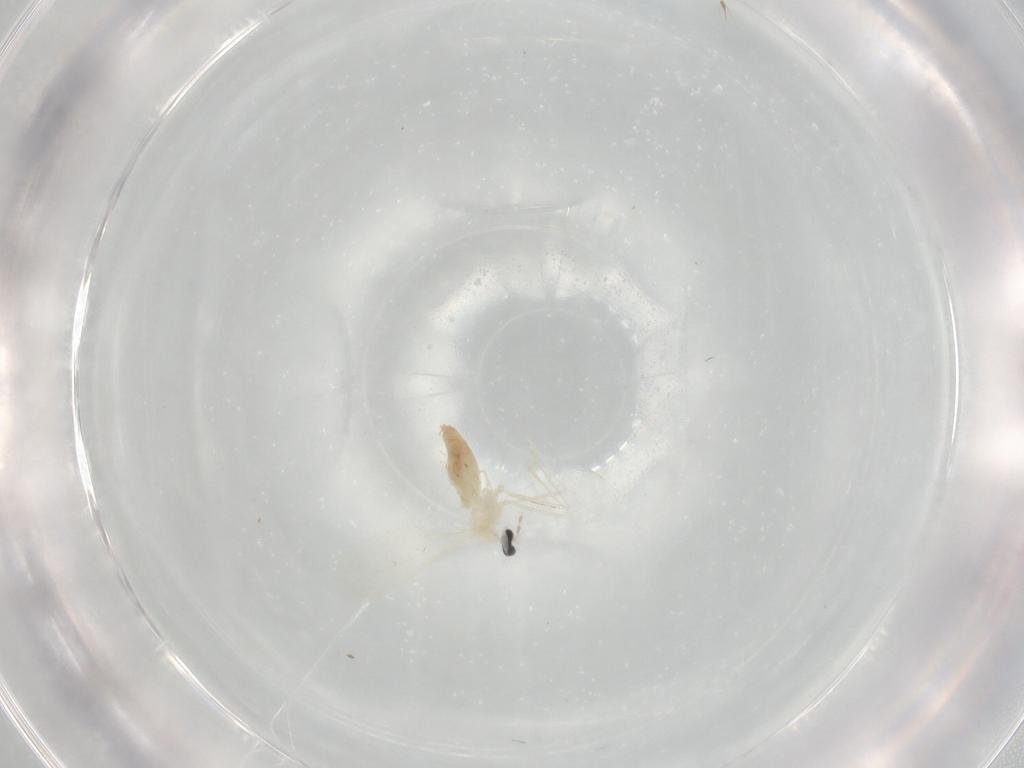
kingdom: Animalia
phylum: Arthropoda
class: Insecta
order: Diptera
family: Cecidomyiidae
